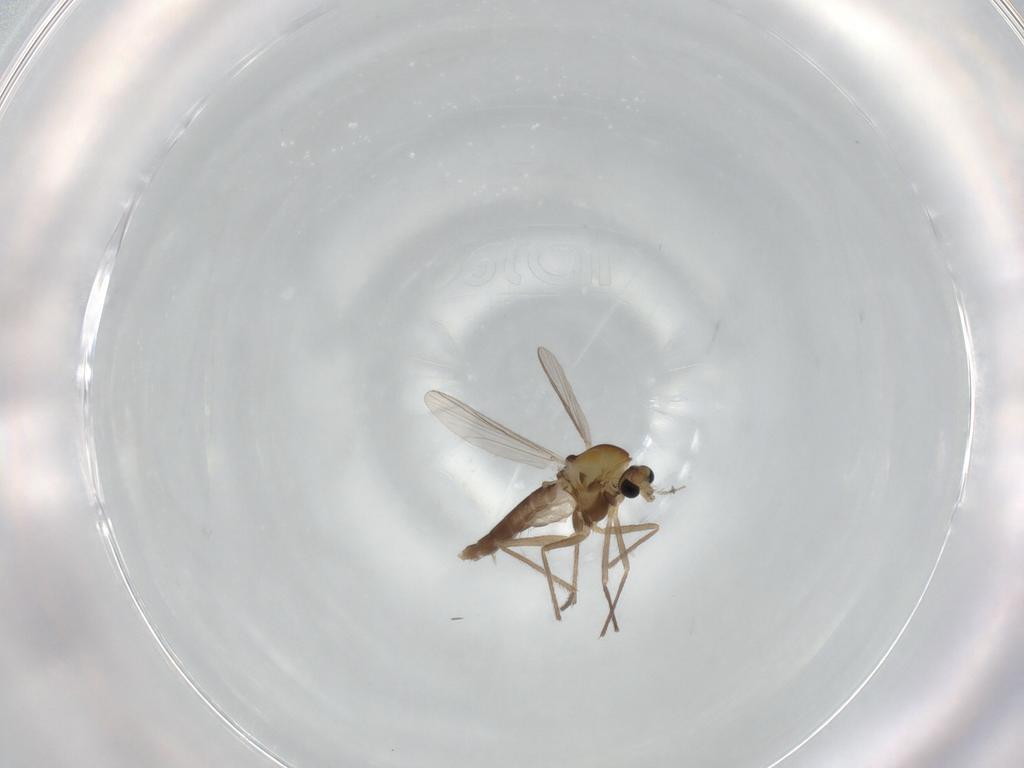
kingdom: Animalia
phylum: Arthropoda
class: Insecta
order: Diptera
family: Chironomidae
